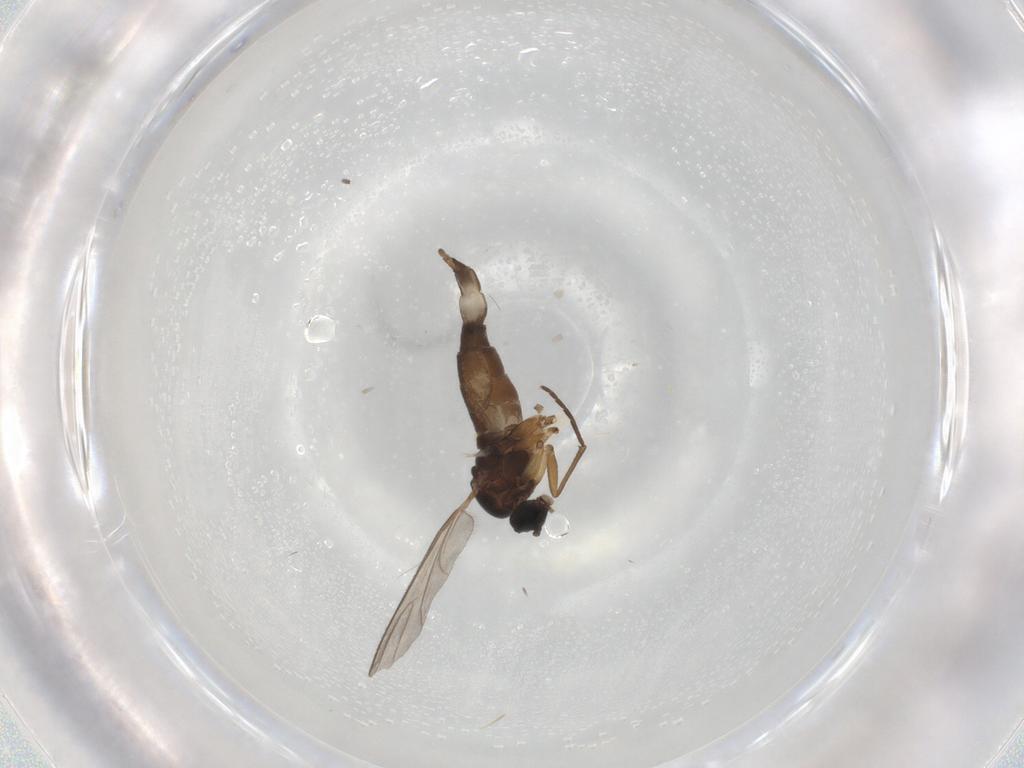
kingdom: Animalia
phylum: Arthropoda
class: Insecta
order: Diptera
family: Sciaridae
